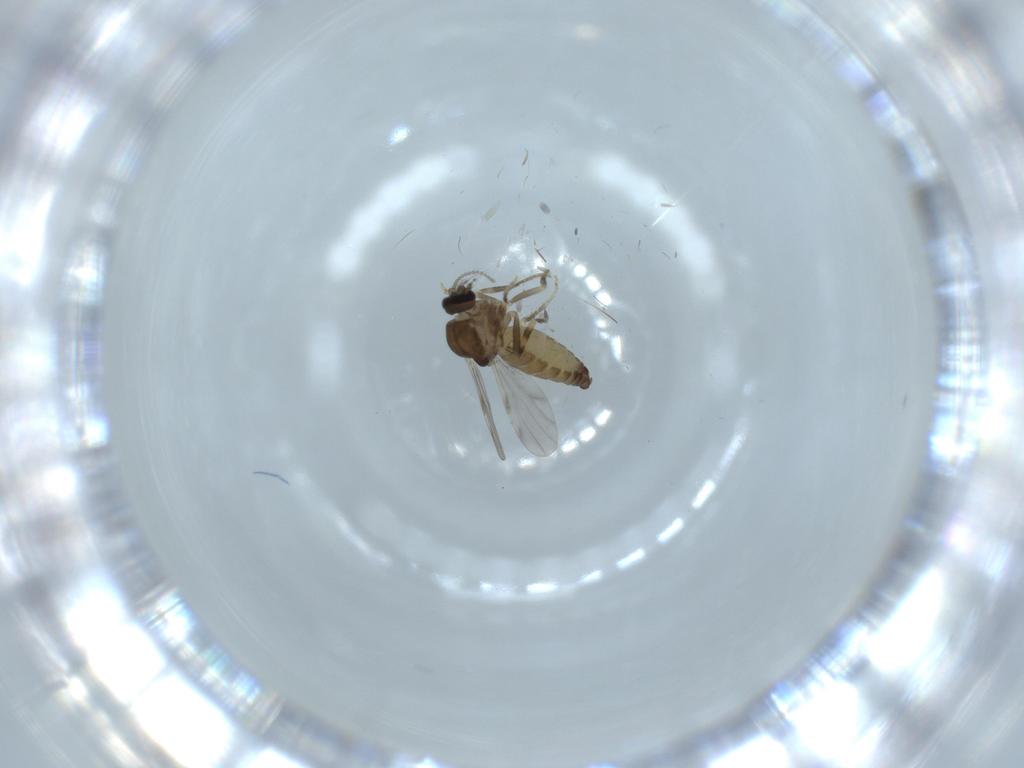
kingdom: Animalia
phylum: Arthropoda
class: Insecta
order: Diptera
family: Ceratopogonidae
